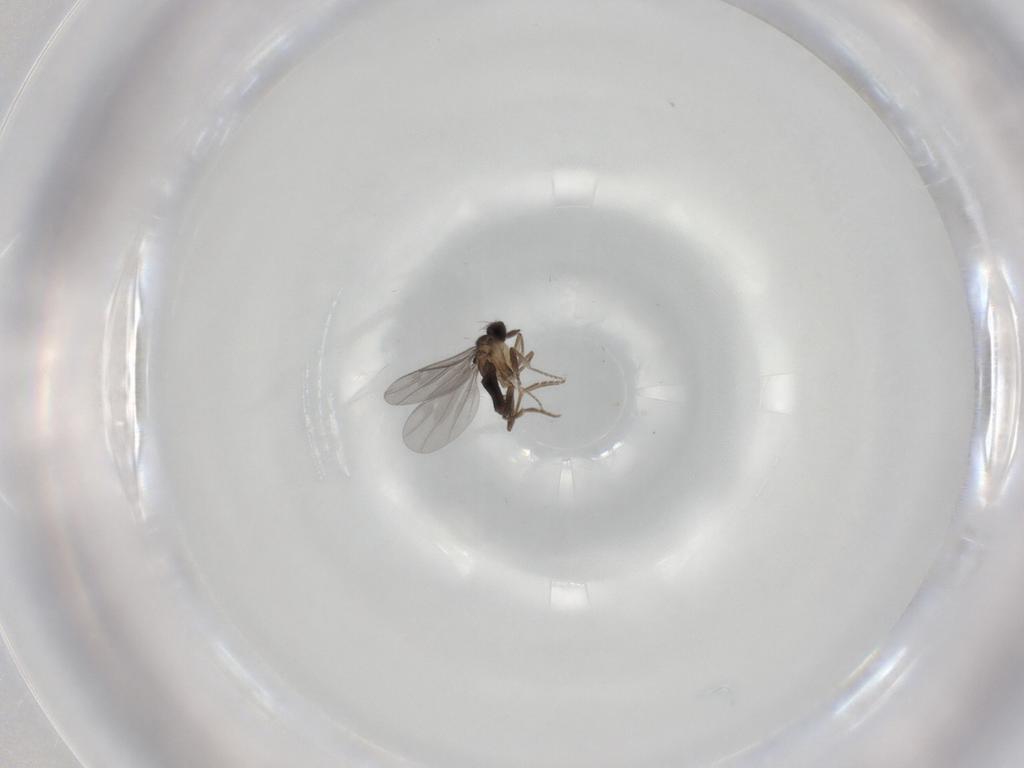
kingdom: Animalia
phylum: Arthropoda
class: Insecta
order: Diptera
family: Phoridae
